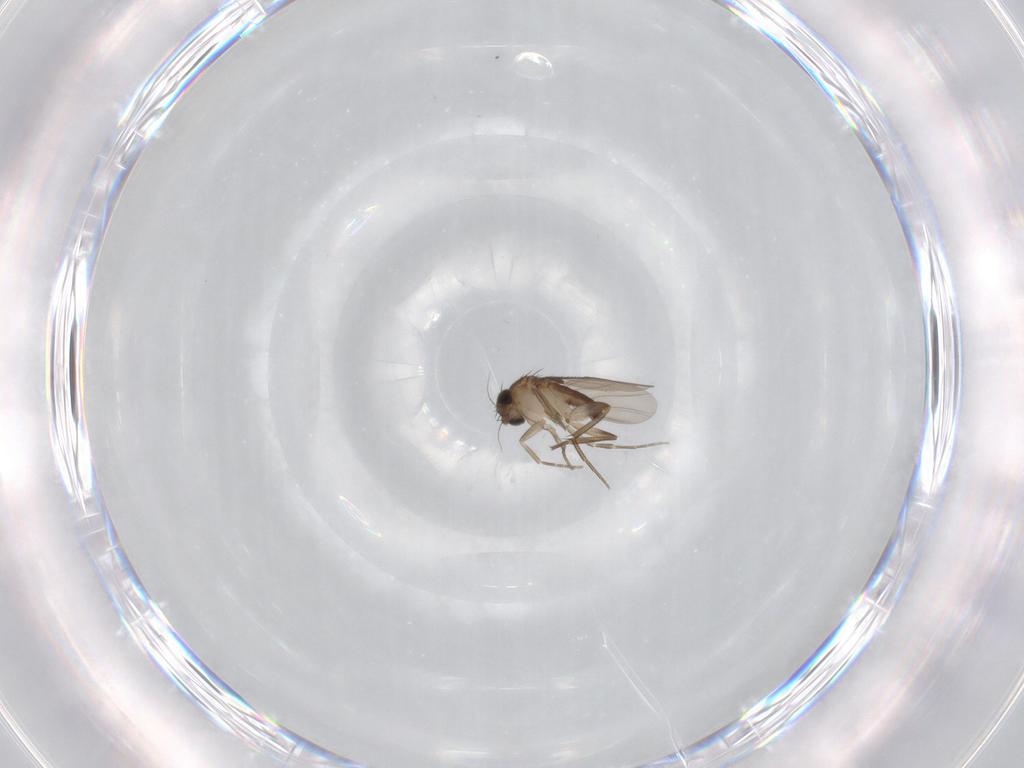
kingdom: Animalia
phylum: Arthropoda
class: Insecta
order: Diptera
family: Phoridae
